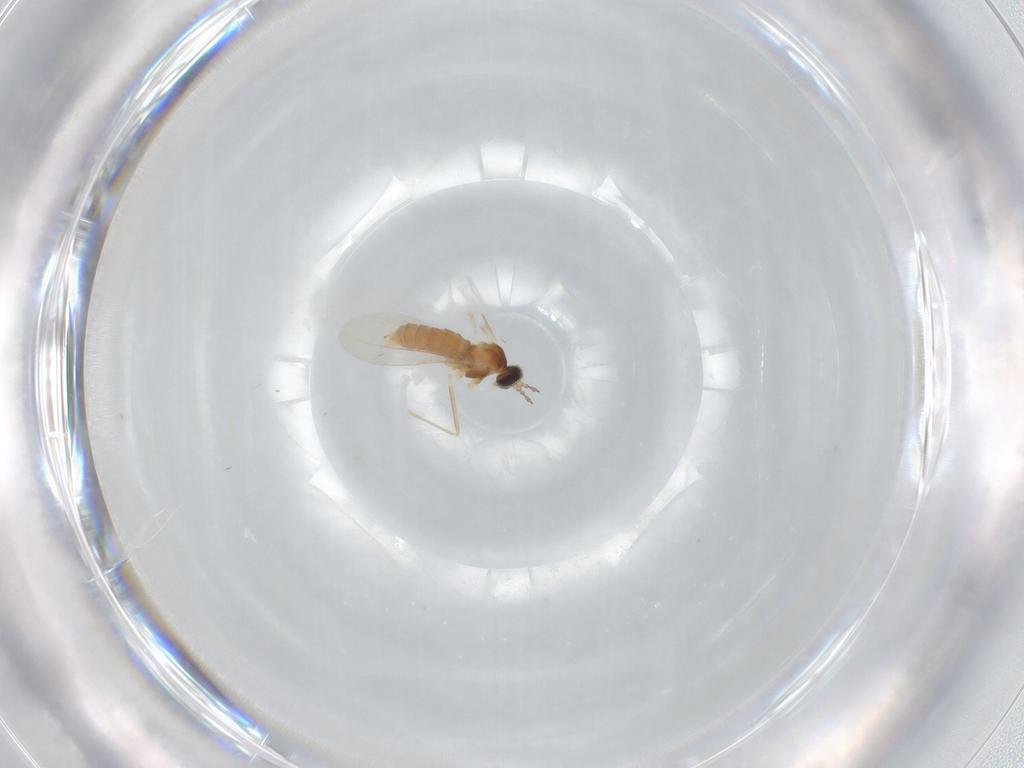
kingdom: Animalia
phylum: Arthropoda
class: Insecta
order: Diptera
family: Cecidomyiidae
